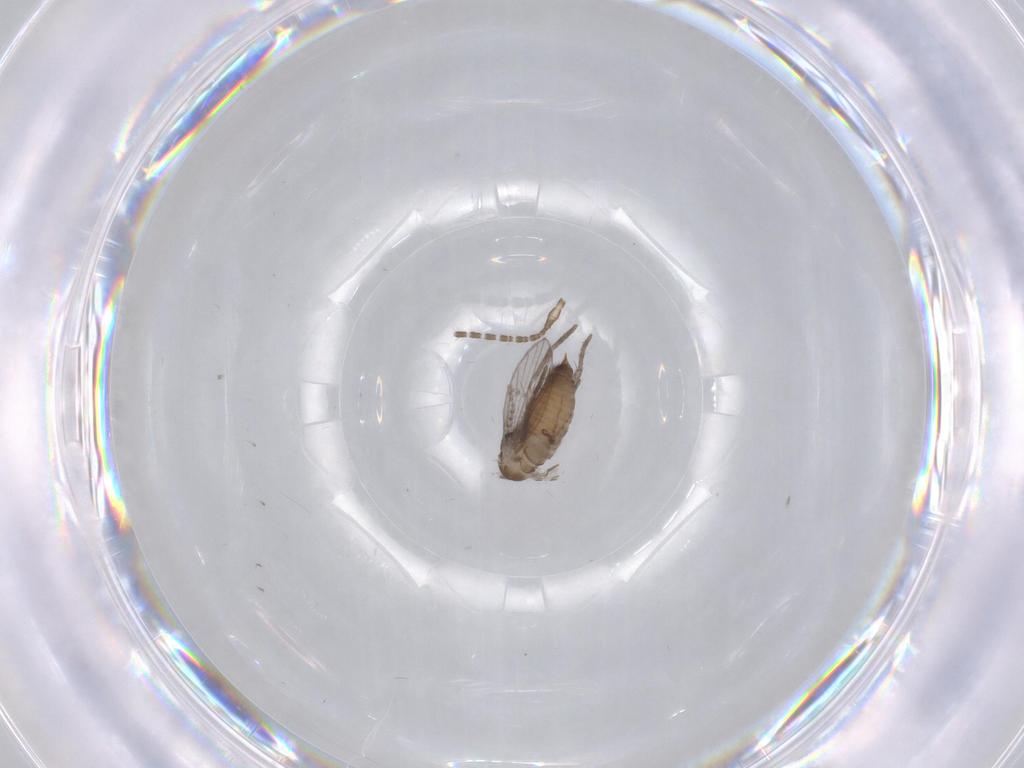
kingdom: Animalia
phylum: Arthropoda
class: Insecta
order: Diptera
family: Psychodidae
